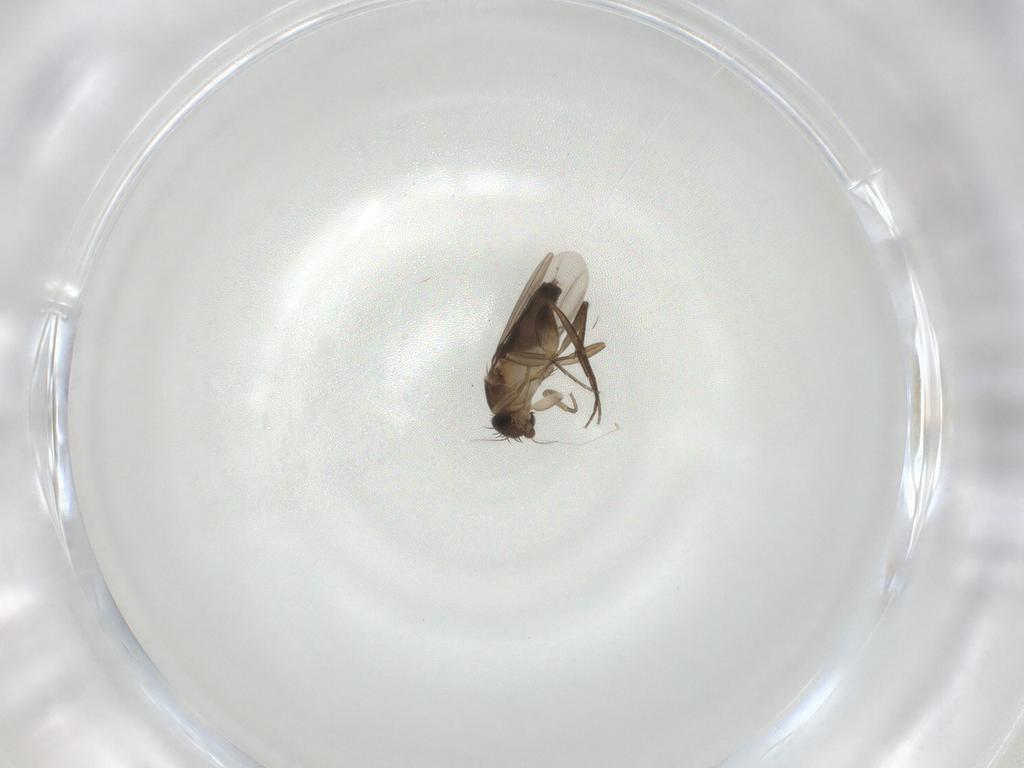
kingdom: Animalia
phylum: Arthropoda
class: Insecta
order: Diptera
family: Phoridae
